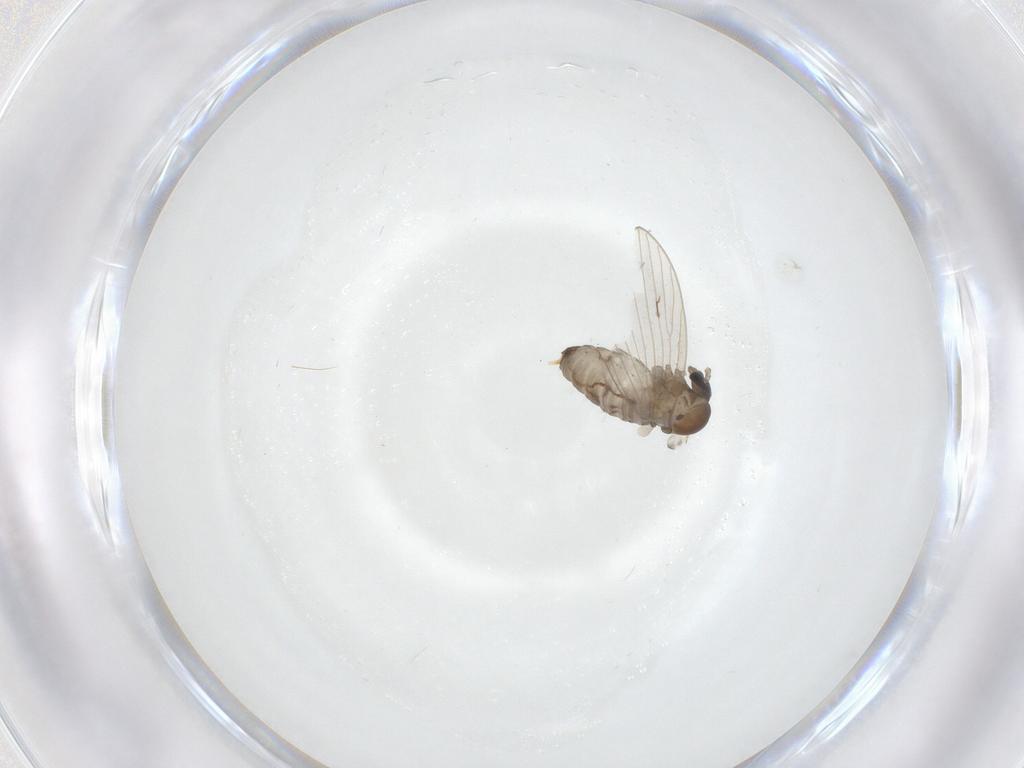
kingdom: Animalia
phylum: Arthropoda
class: Insecta
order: Diptera
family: Psychodidae
